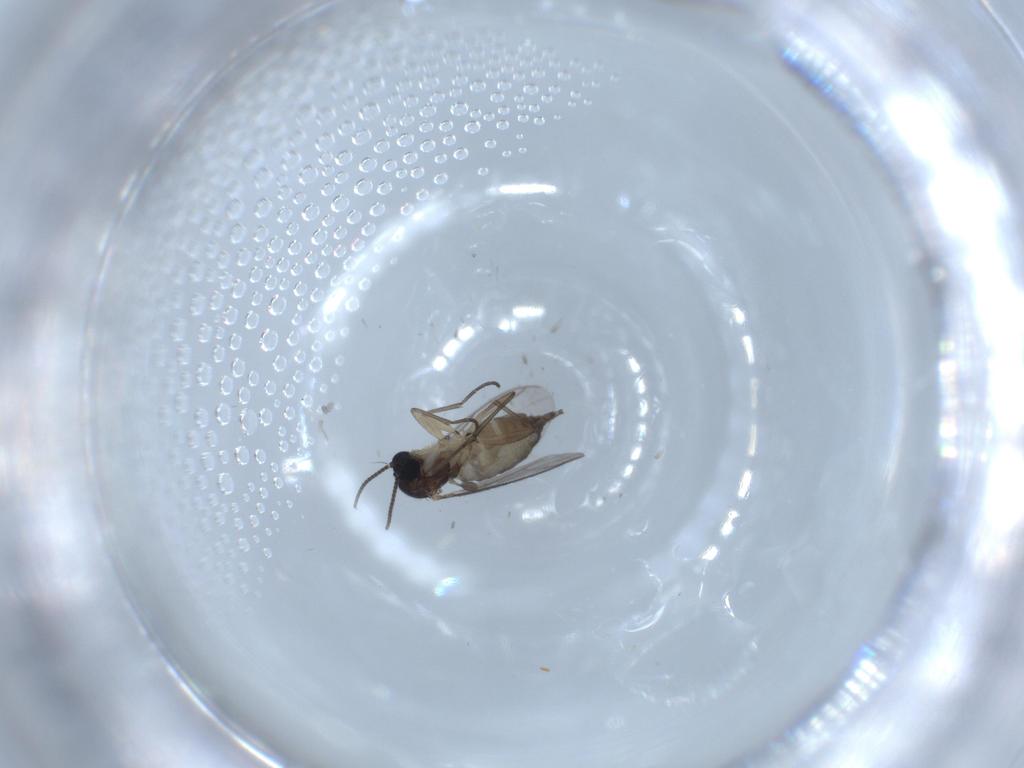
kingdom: Animalia
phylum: Arthropoda
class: Insecta
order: Diptera
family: Sciaridae
